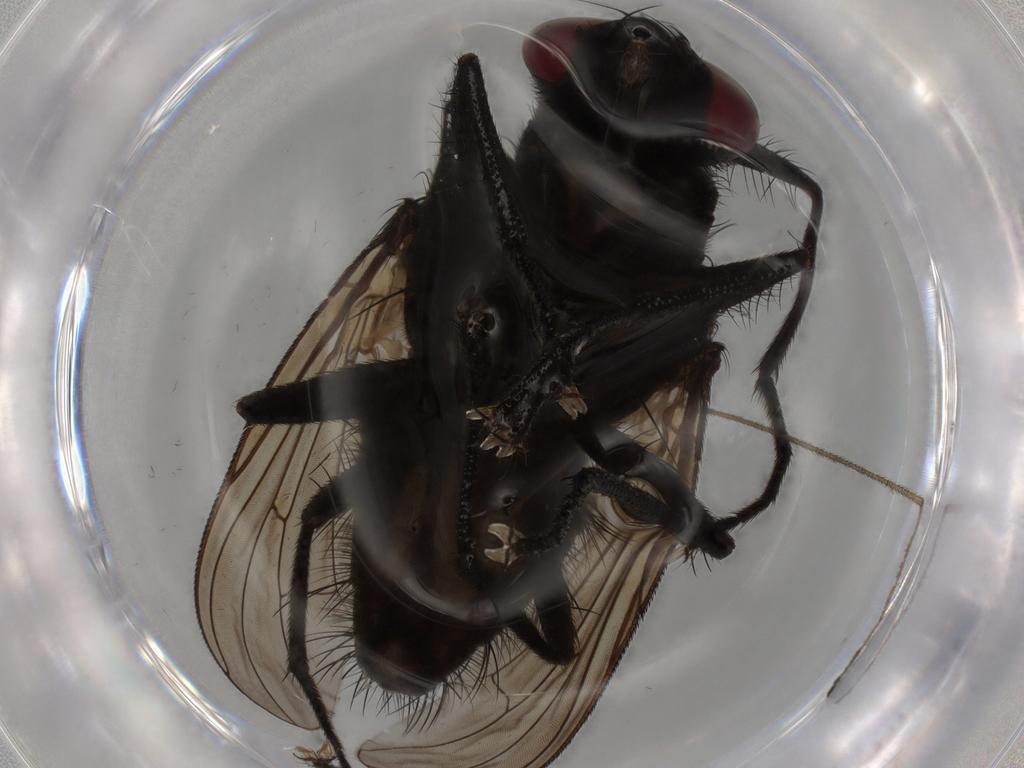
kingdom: Animalia
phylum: Arthropoda
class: Insecta
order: Diptera
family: Muscidae
